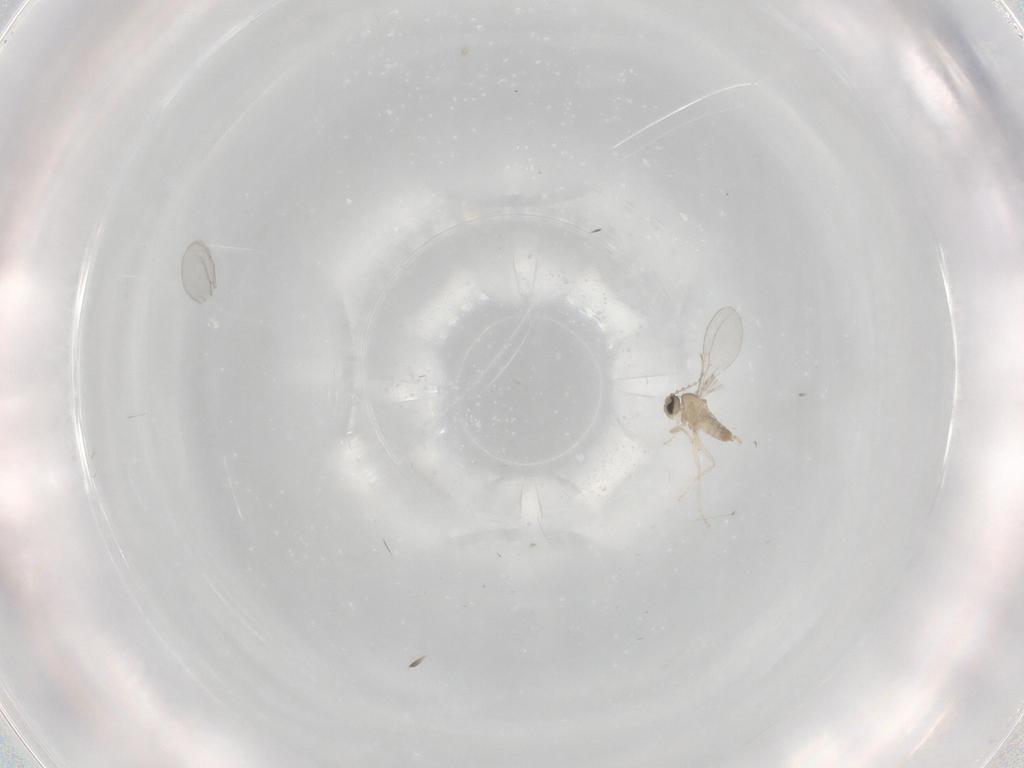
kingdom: Animalia
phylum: Arthropoda
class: Insecta
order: Diptera
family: Cecidomyiidae
